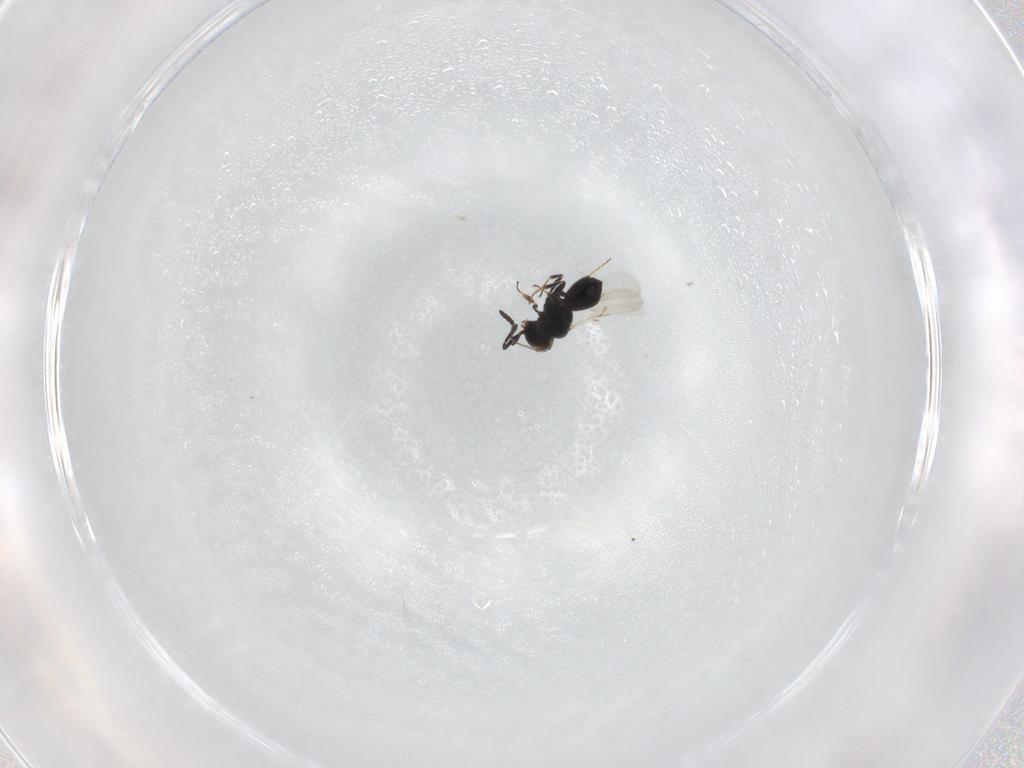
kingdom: Animalia
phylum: Arthropoda
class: Insecta
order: Hymenoptera
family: Scelionidae
